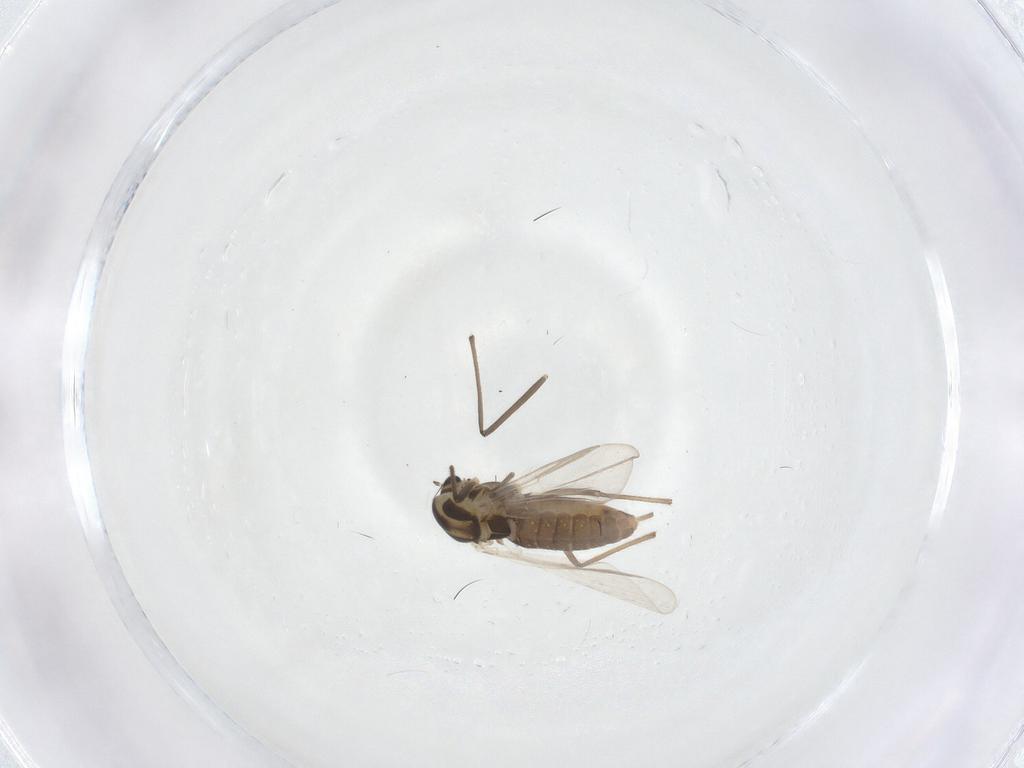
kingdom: Animalia
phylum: Arthropoda
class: Insecta
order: Diptera
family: Chironomidae
